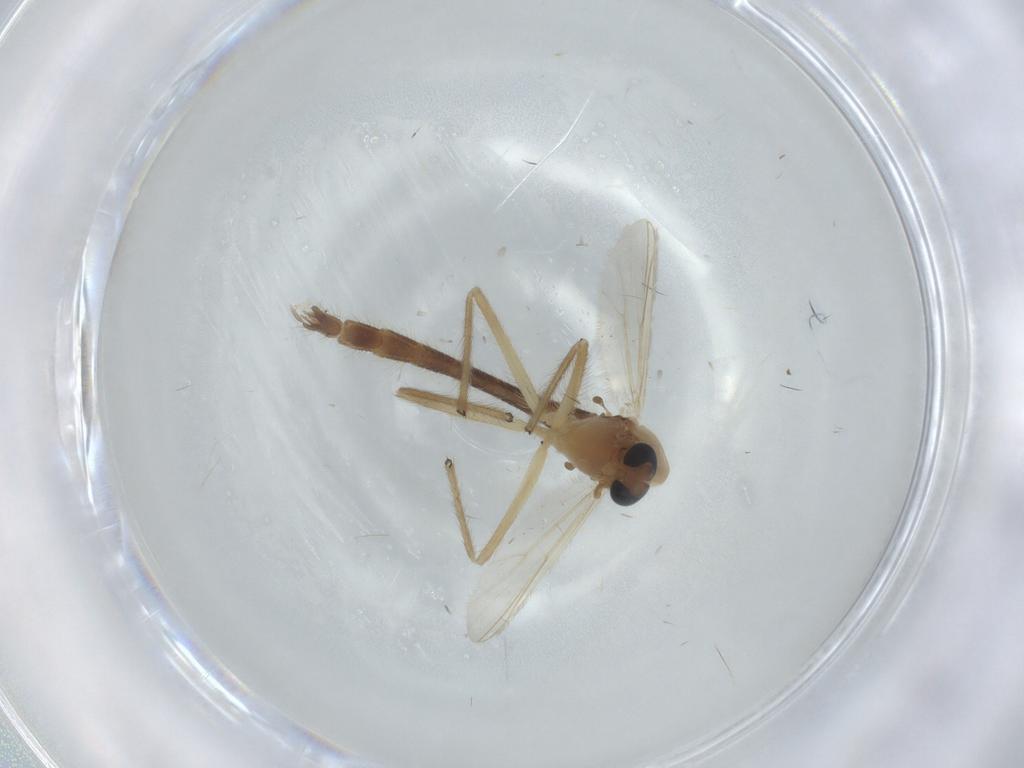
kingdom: Animalia
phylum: Arthropoda
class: Insecta
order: Diptera
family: Chironomidae
